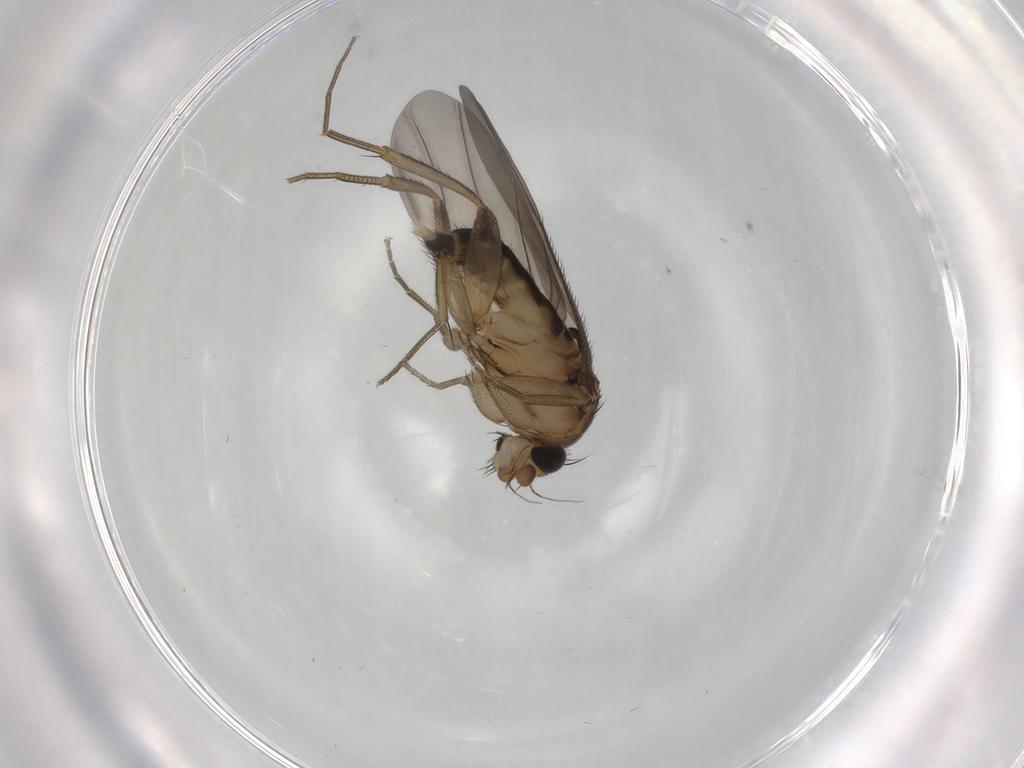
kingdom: Animalia
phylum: Arthropoda
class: Insecta
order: Diptera
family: Phoridae
